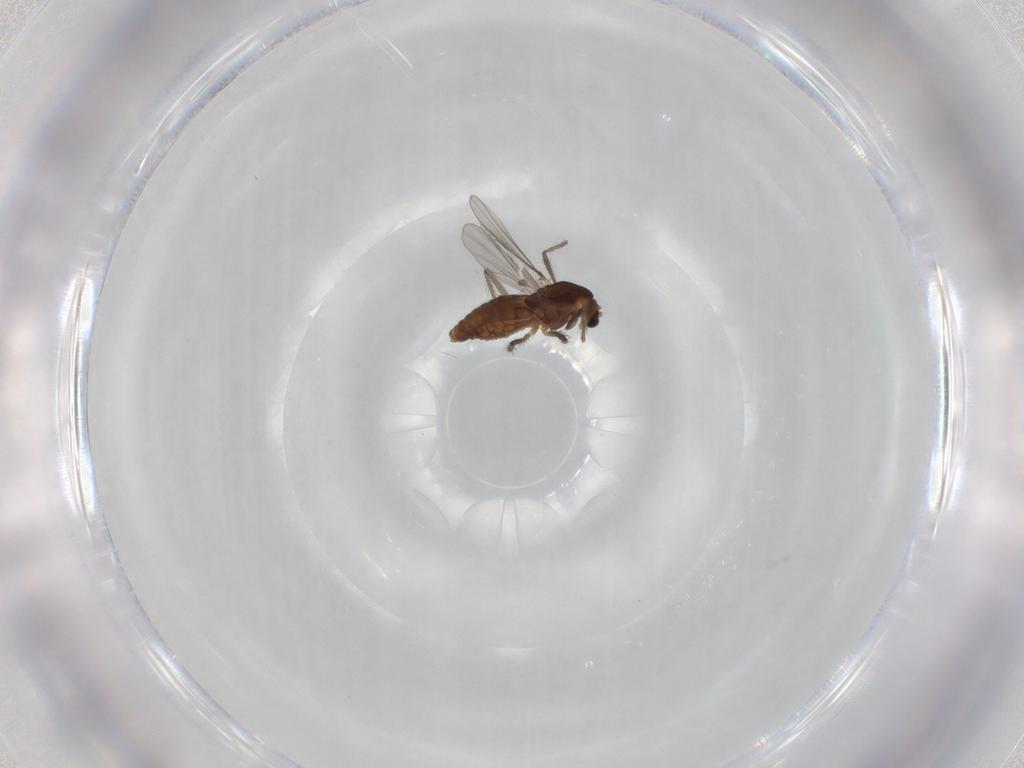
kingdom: Animalia
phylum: Arthropoda
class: Insecta
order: Diptera
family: Chironomidae
